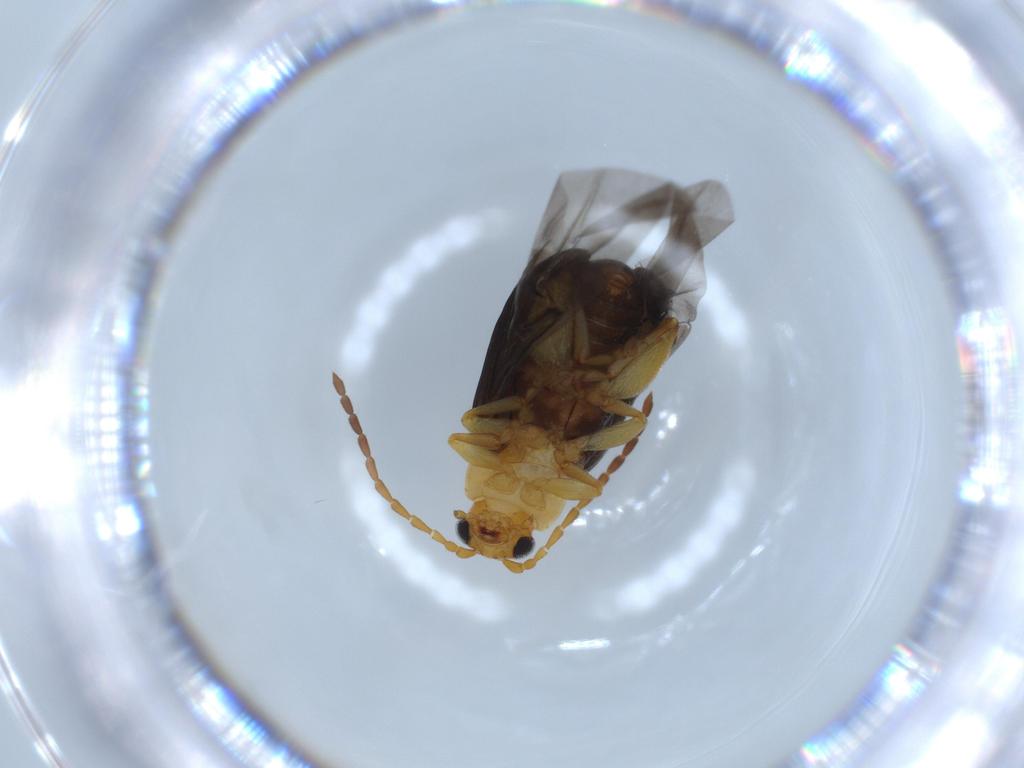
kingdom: Animalia
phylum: Arthropoda
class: Insecta
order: Coleoptera
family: Chrysomelidae
